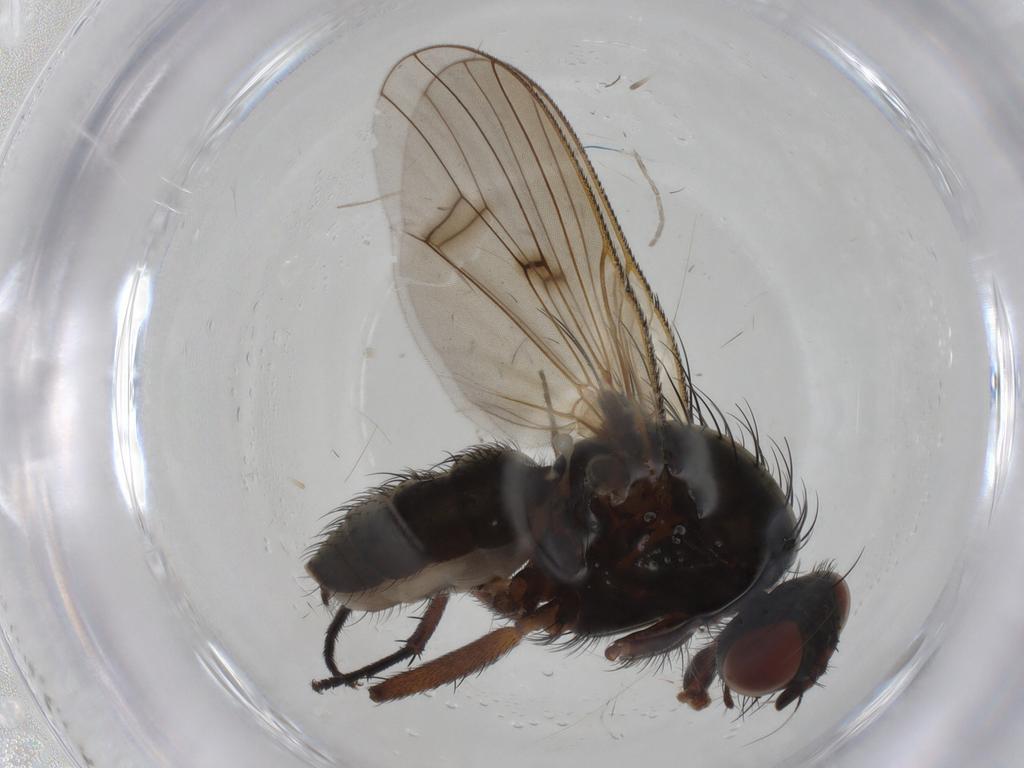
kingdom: Animalia
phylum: Arthropoda
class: Insecta
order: Diptera
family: Anthomyiidae
